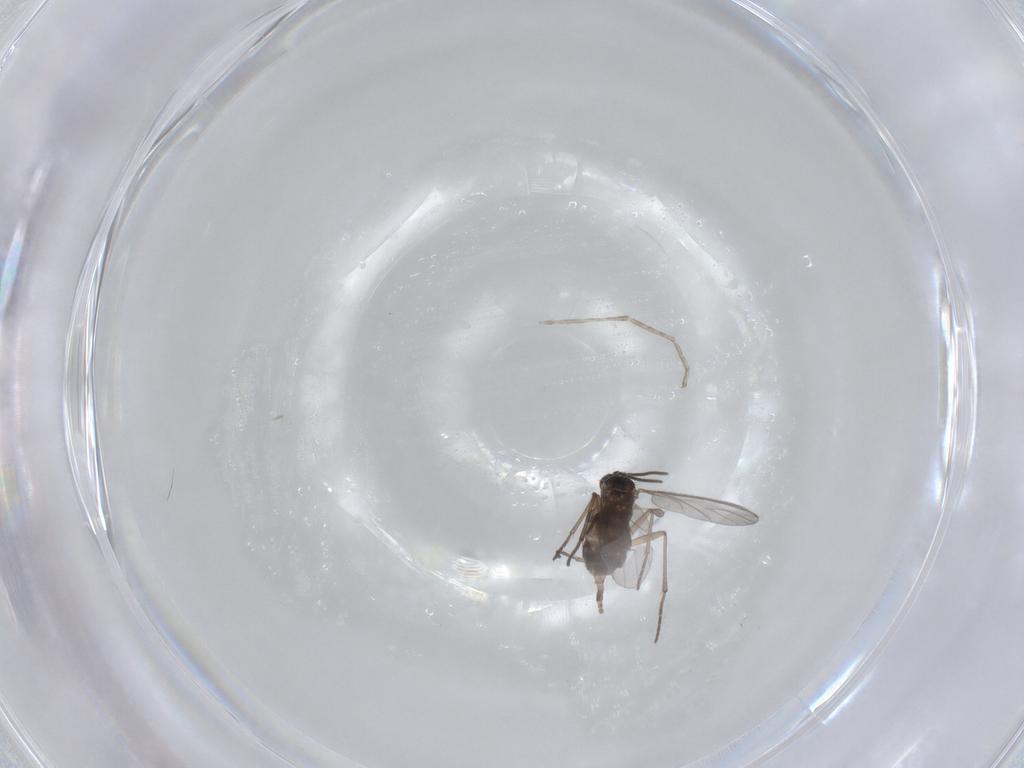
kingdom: Animalia
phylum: Arthropoda
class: Insecta
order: Diptera
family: Cecidomyiidae
